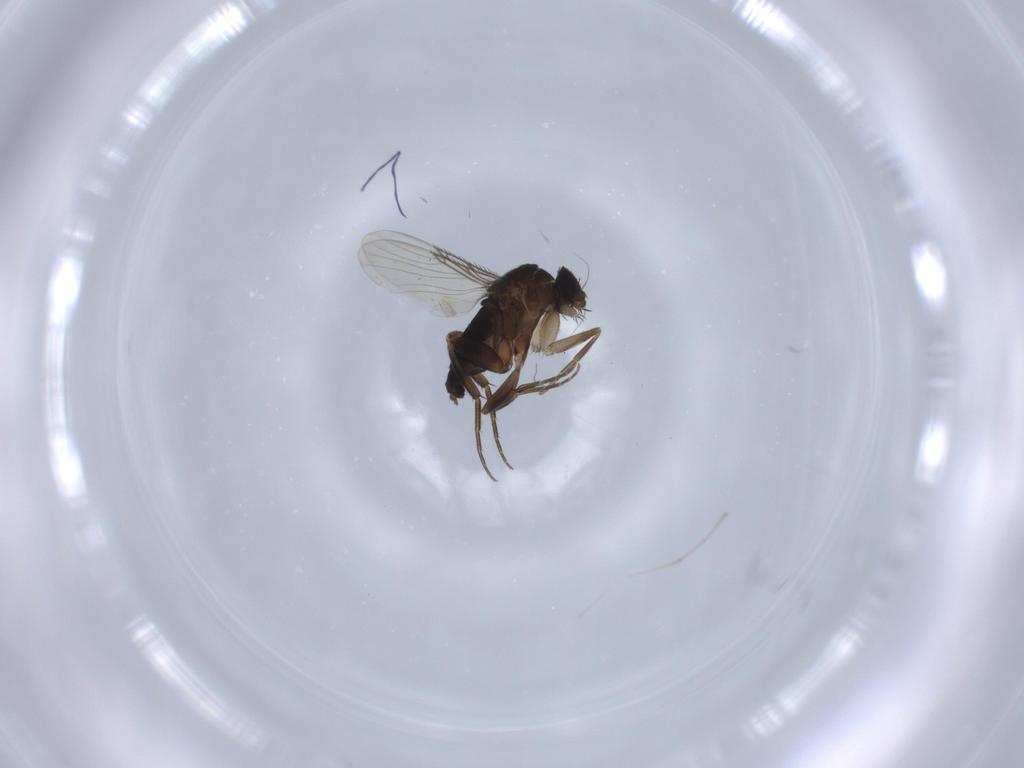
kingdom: Animalia
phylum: Arthropoda
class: Insecta
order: Diptera
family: Phoridae
